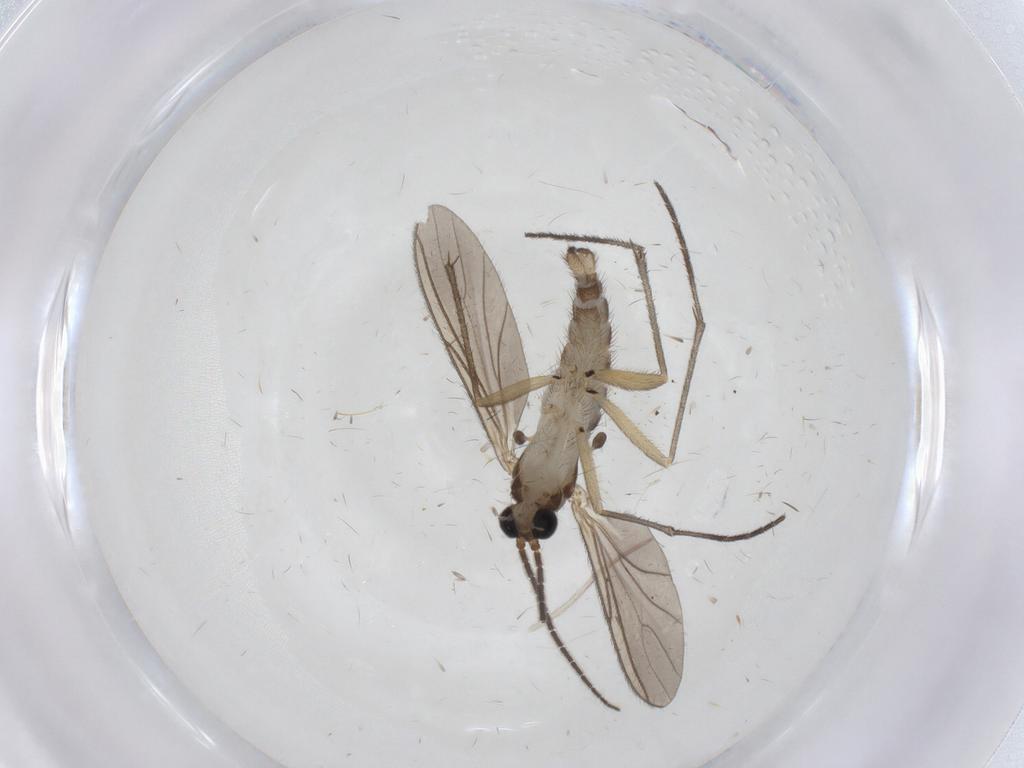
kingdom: Animalia
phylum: Arthropoda
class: Insecta
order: Diptera
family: Sciaridae
